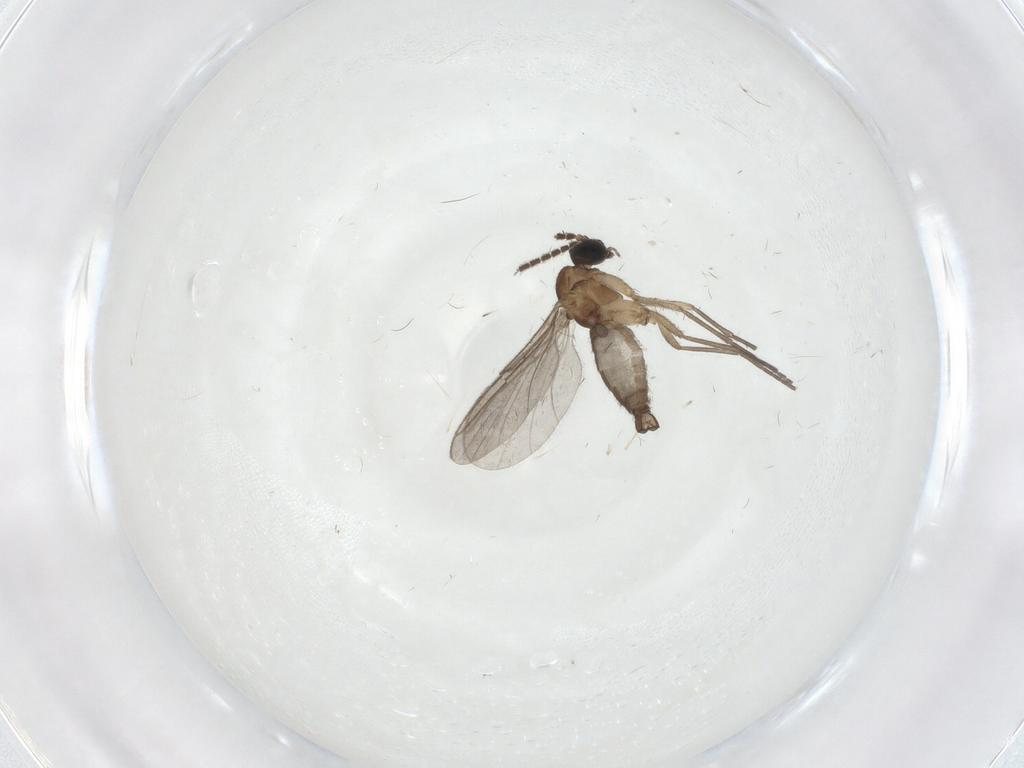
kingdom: Animalia
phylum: Arthropoda
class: Insecta
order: Diptera
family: Sciaridae
